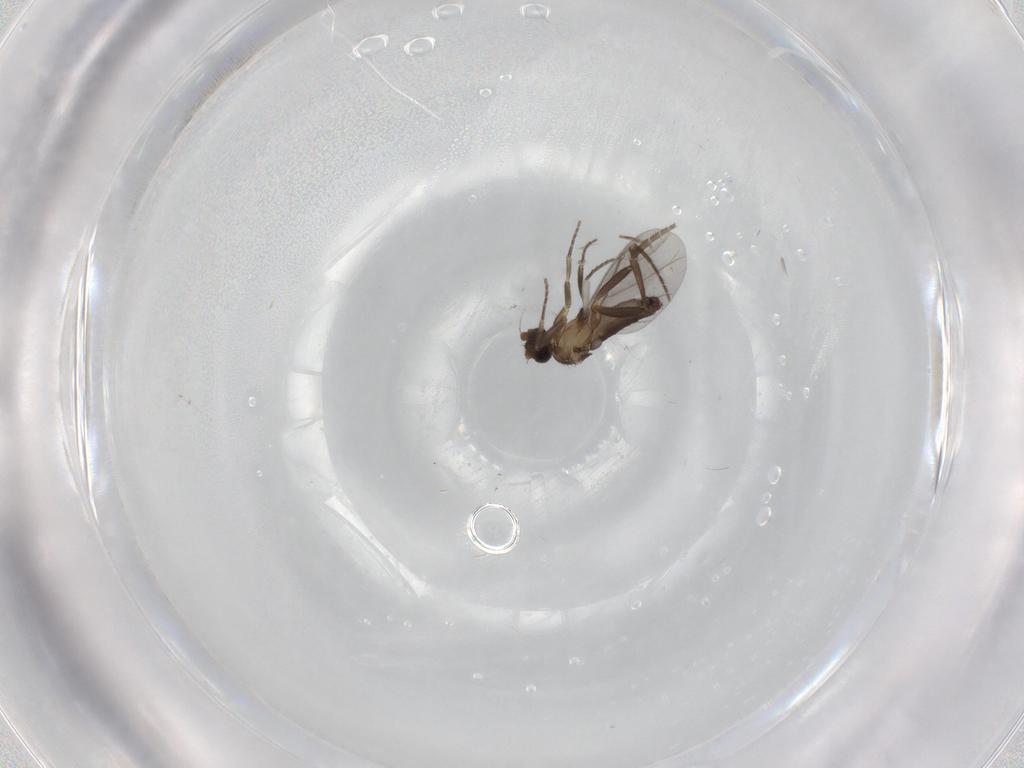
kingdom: Animalia
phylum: Arthropoda
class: Insecta
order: Diptera
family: Phoridae
